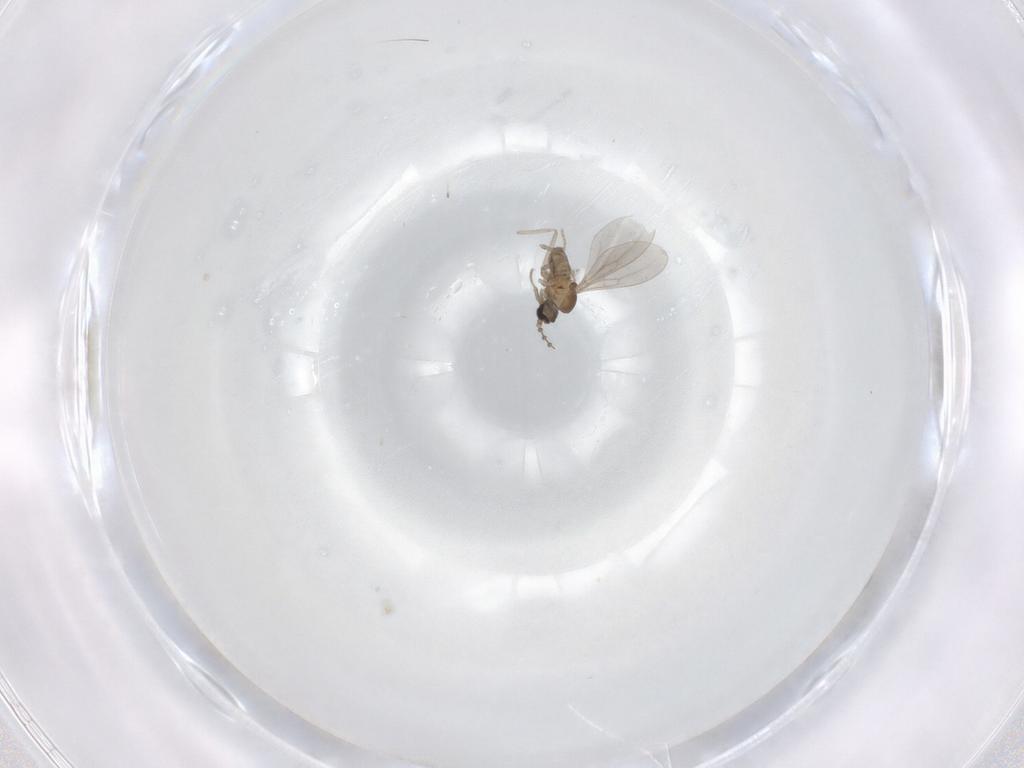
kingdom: Animalia
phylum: Arthropoda
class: Insecta
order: Diptera
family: Cecidomyiidae
